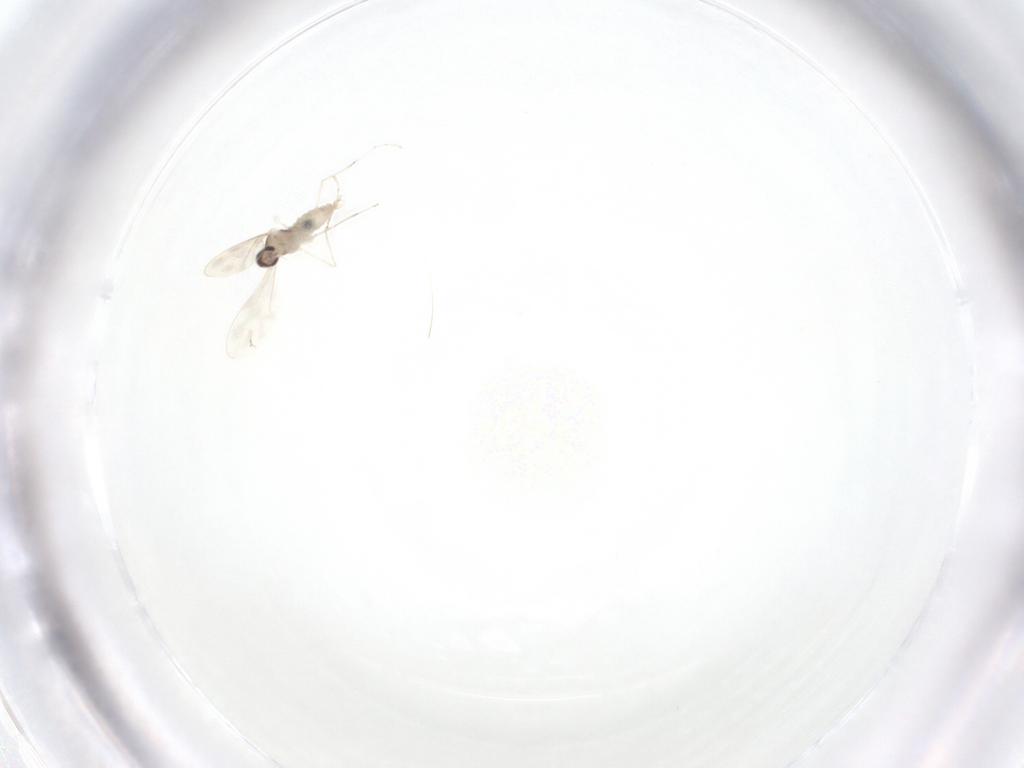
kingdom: Animalia
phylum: Arthropoda
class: Insecta
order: Diptera
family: Cecidomyiidae
